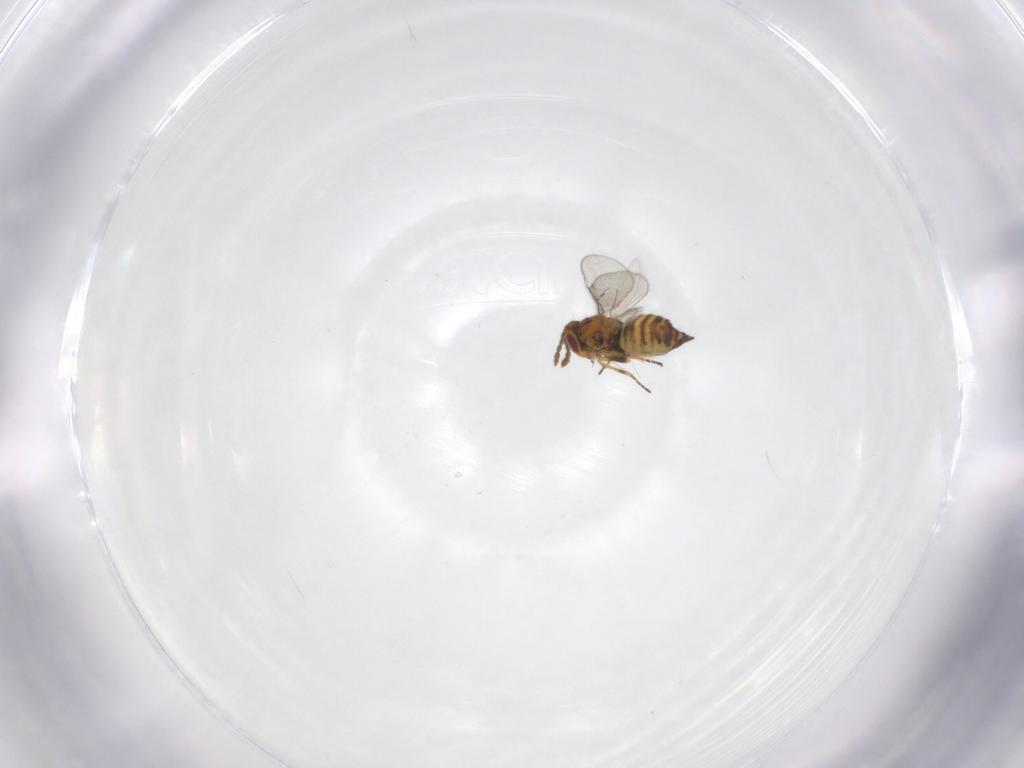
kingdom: Animalia
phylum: Arthropoda
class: Insecta
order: Hymenoptera
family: Eulophidae
